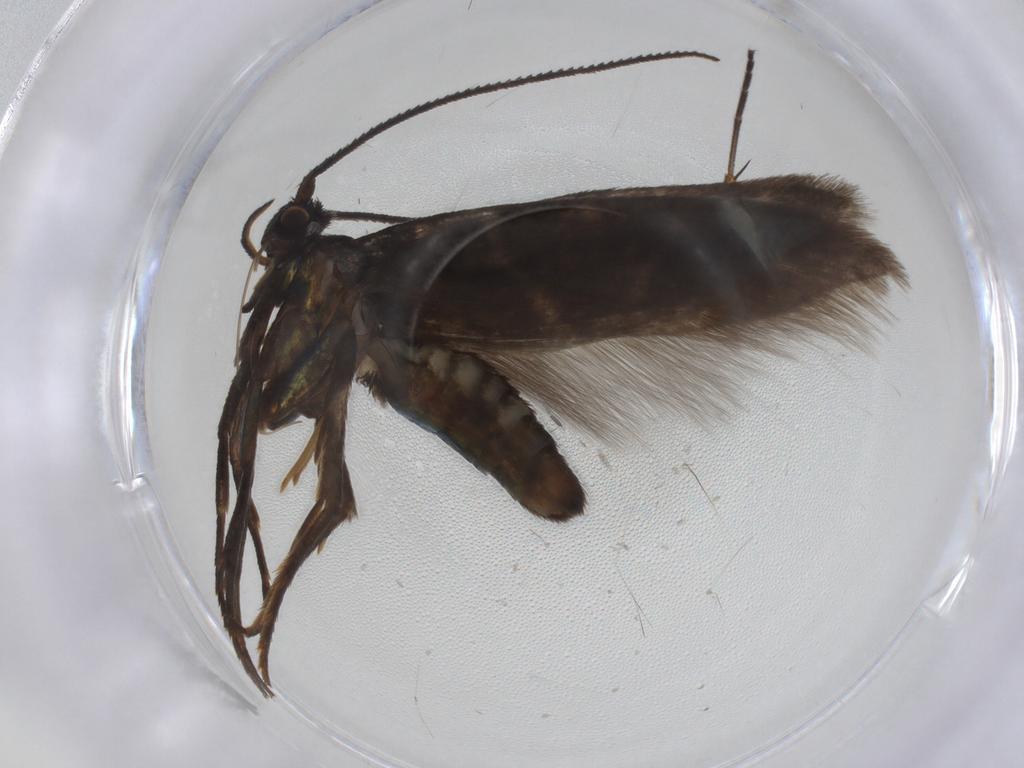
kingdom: Animalia
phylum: Arthropoda
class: Insecta
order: Lepidoptera
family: Argyresthiidae
